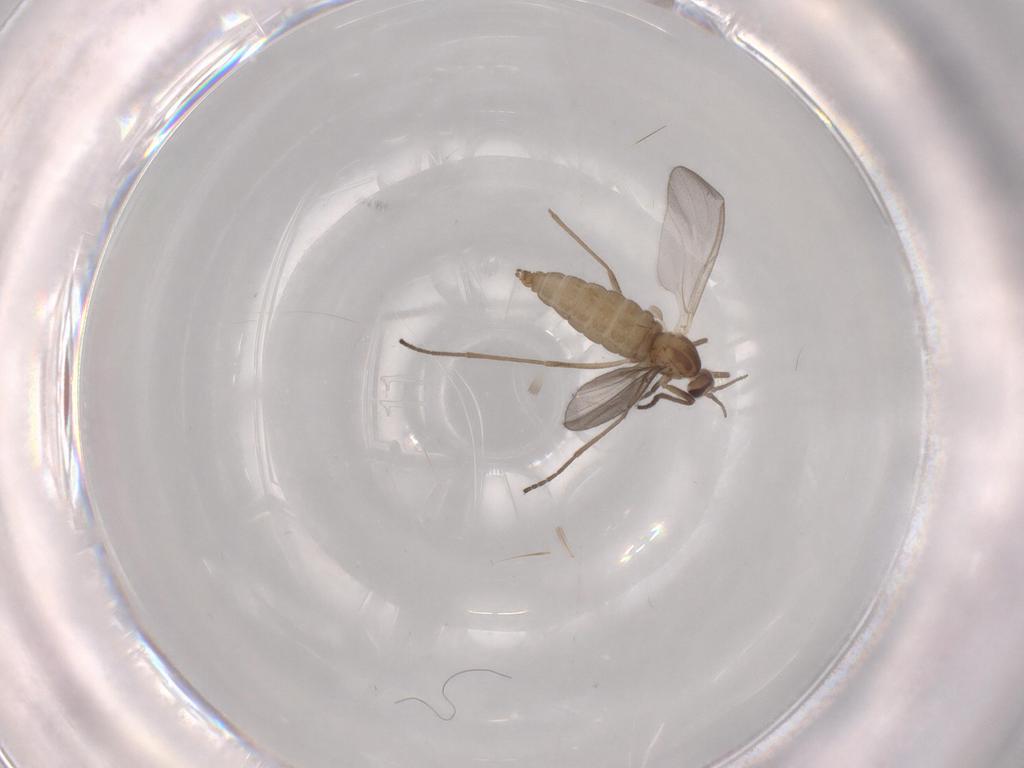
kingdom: Animalia
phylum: Arthropoda
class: Insecta
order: Diptera
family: Cecidomyiidae
